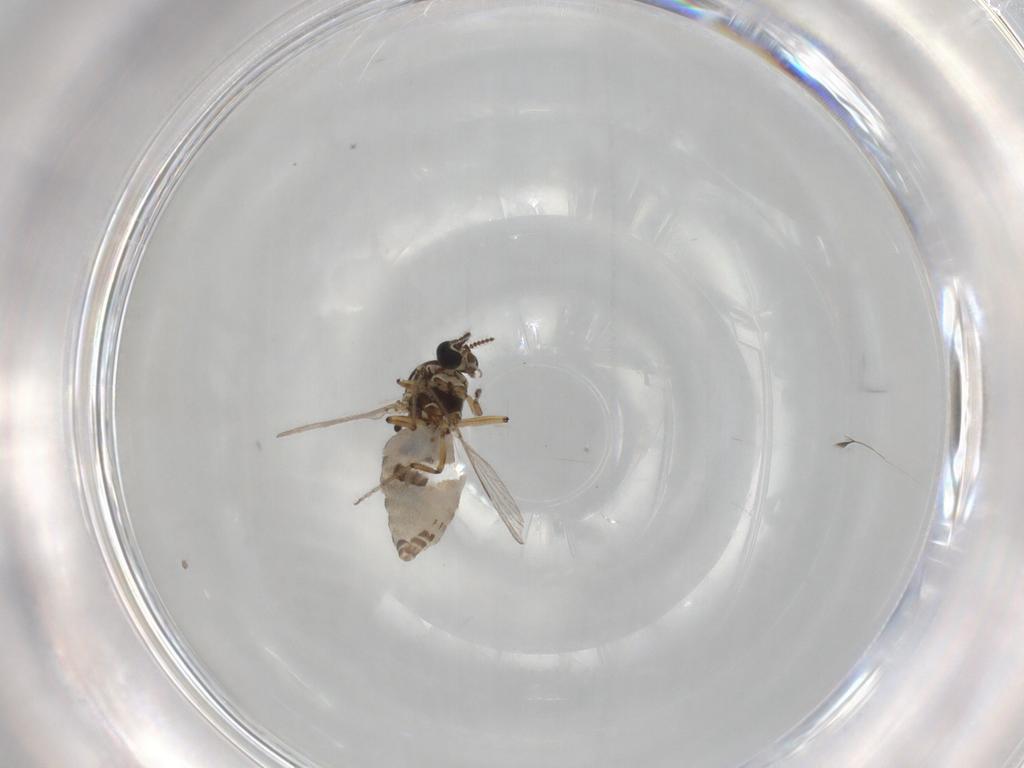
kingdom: Animalia
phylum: Arthropoda
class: Insecta
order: Diptera
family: Ceratopogonidae
